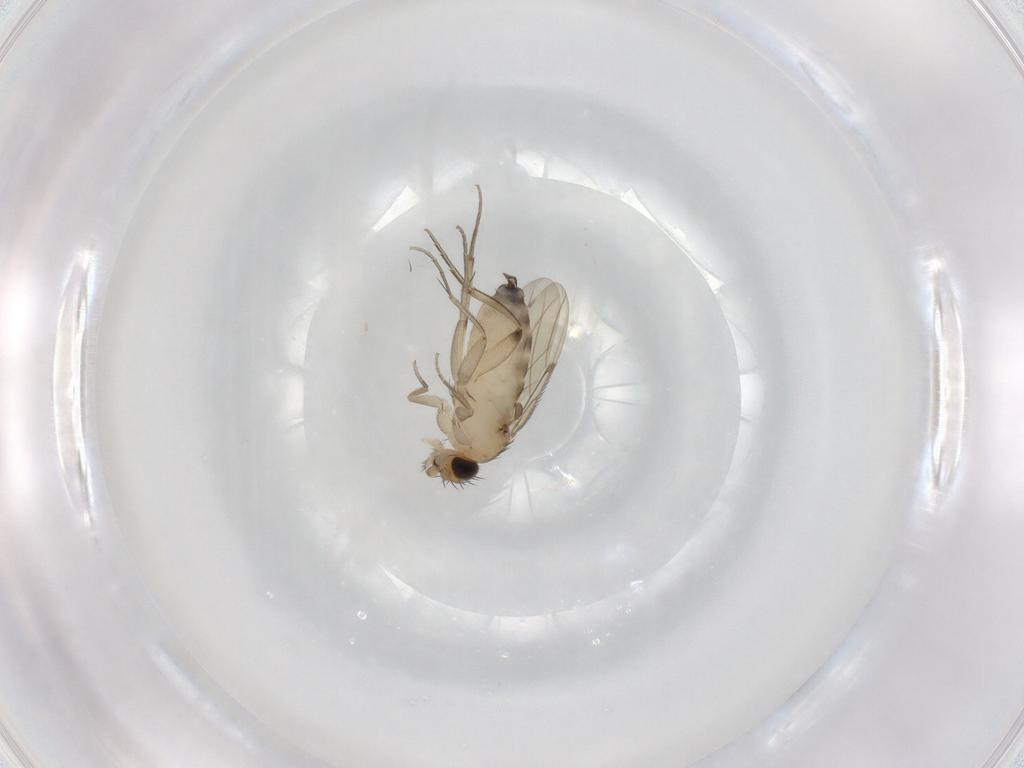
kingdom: Animalia
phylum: Arthropoda
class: Insecta
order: Diptera
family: Phoridae
